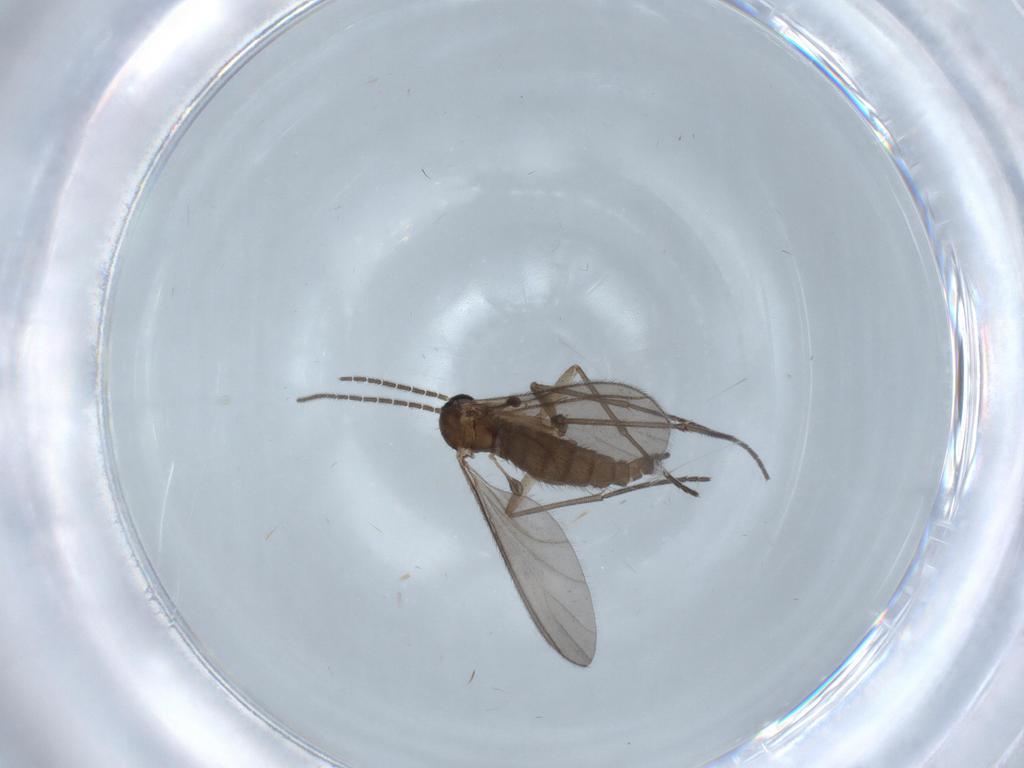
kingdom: Animalia
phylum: Arthropoda
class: Insecta
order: Diptera
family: Sciaridae
